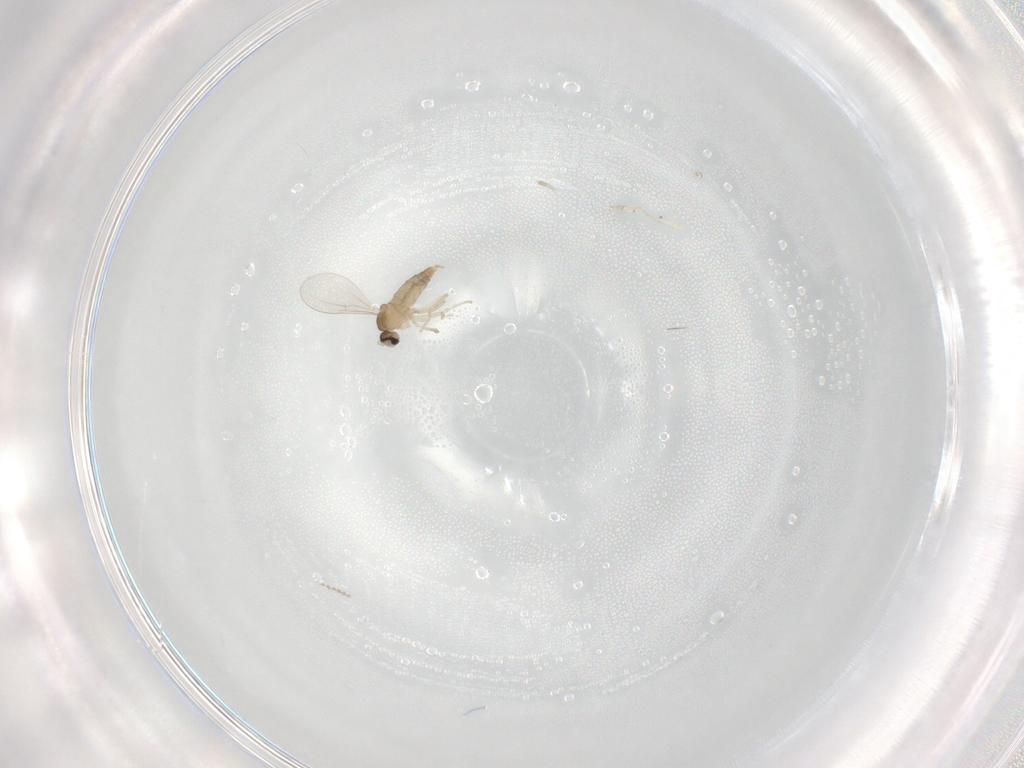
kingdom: Animalia
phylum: Arthropoda
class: Insecta
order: Diptera
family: Cecidomyiidae
